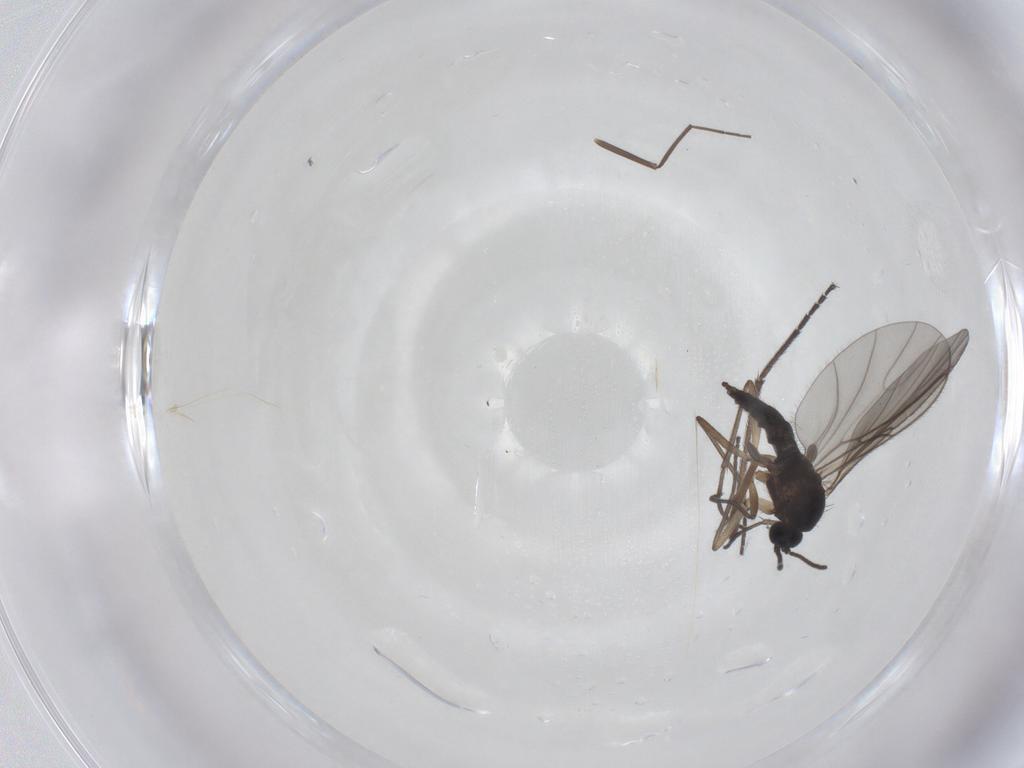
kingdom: Animalia
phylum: Arthropoda
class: Insecta
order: Diptera
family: Chironomidae
